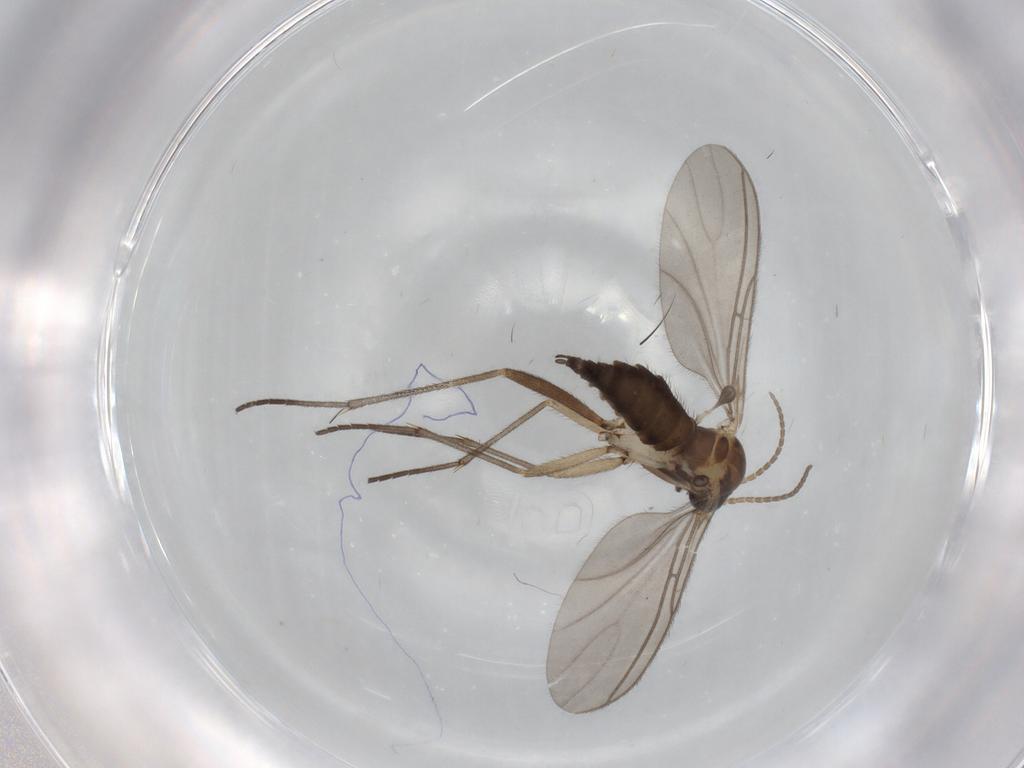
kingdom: Animalia
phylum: Arthropoda
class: Insecta
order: Diptera
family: Sciaridae
